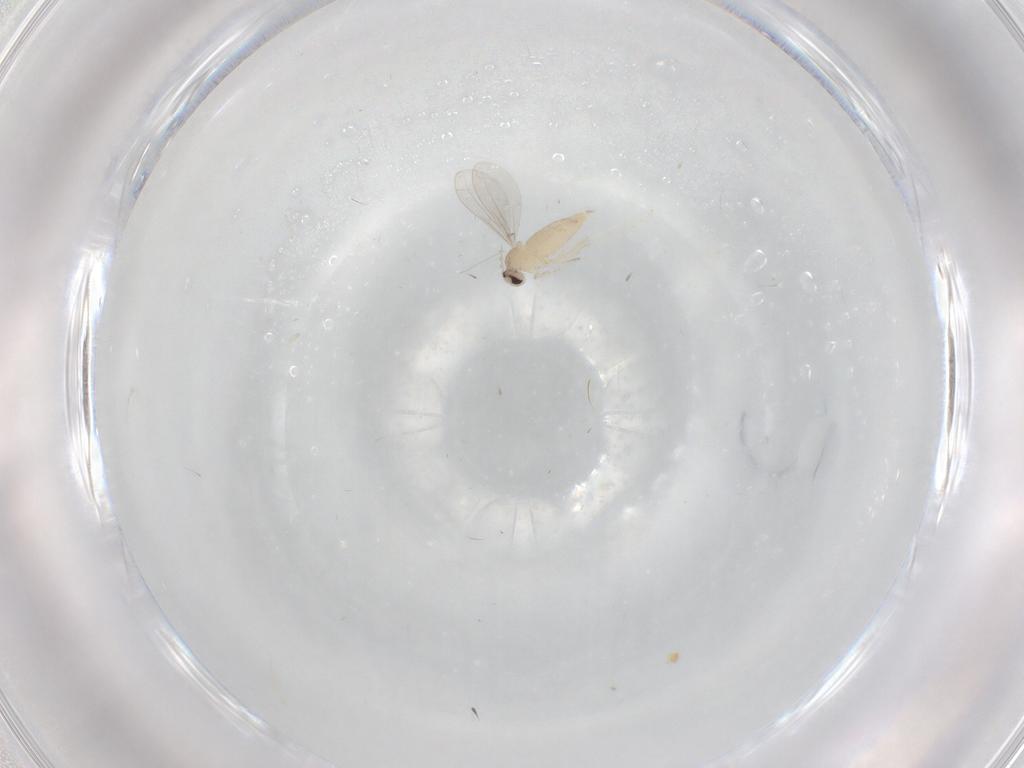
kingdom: Animalia
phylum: Arthropoda
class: Insecta
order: Diptera
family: Cecidomyiidae
